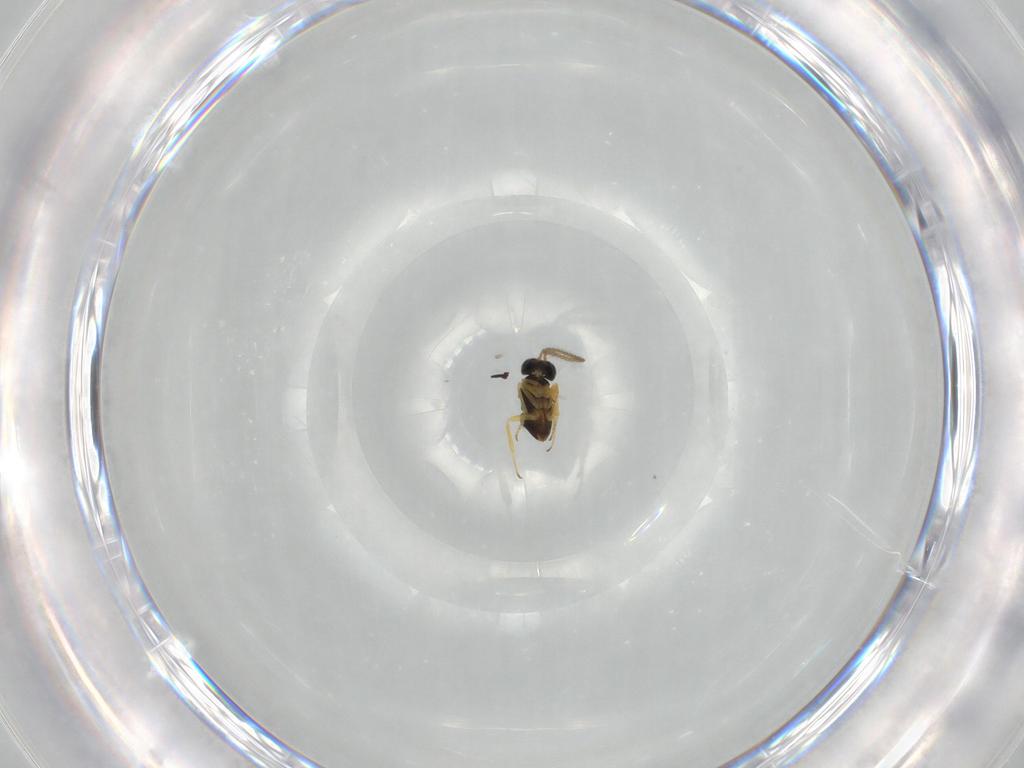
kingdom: Animalia
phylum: Arthropoda
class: Insecta
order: Hymenoptera
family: Encyrtidae
